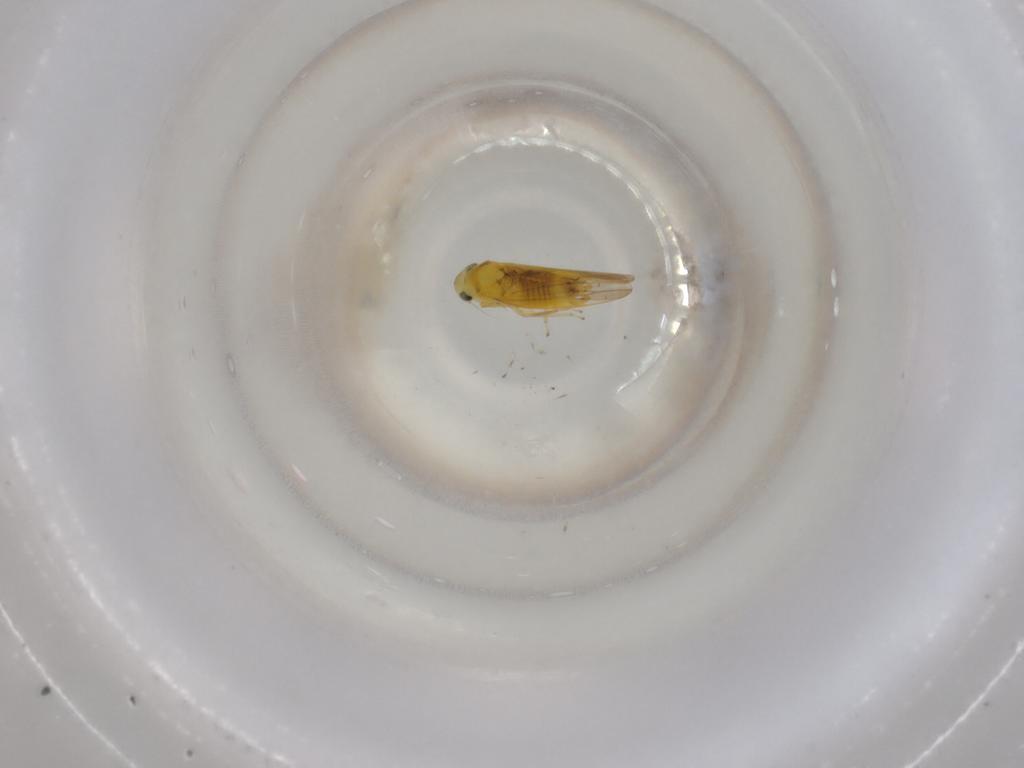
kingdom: Animalia
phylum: Arthropoda
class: Insecta
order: Hemiptera
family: Cicadellidae
